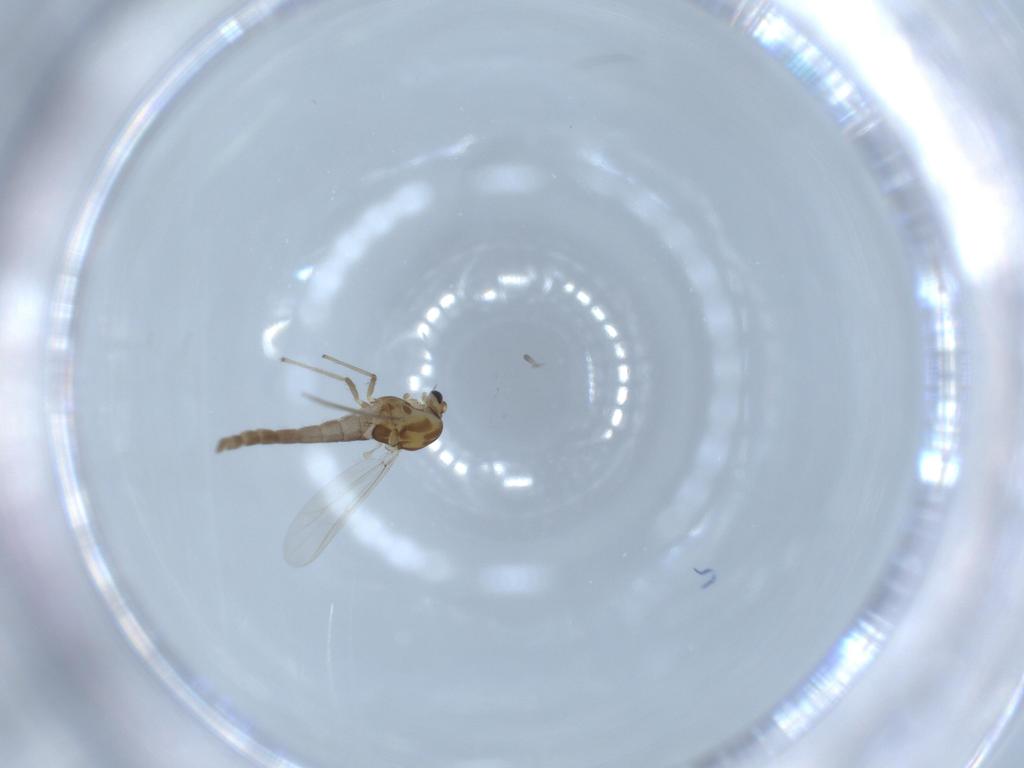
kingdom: Animalia
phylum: Arthropoda
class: Insecta
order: Diptera
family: Chironomidae
